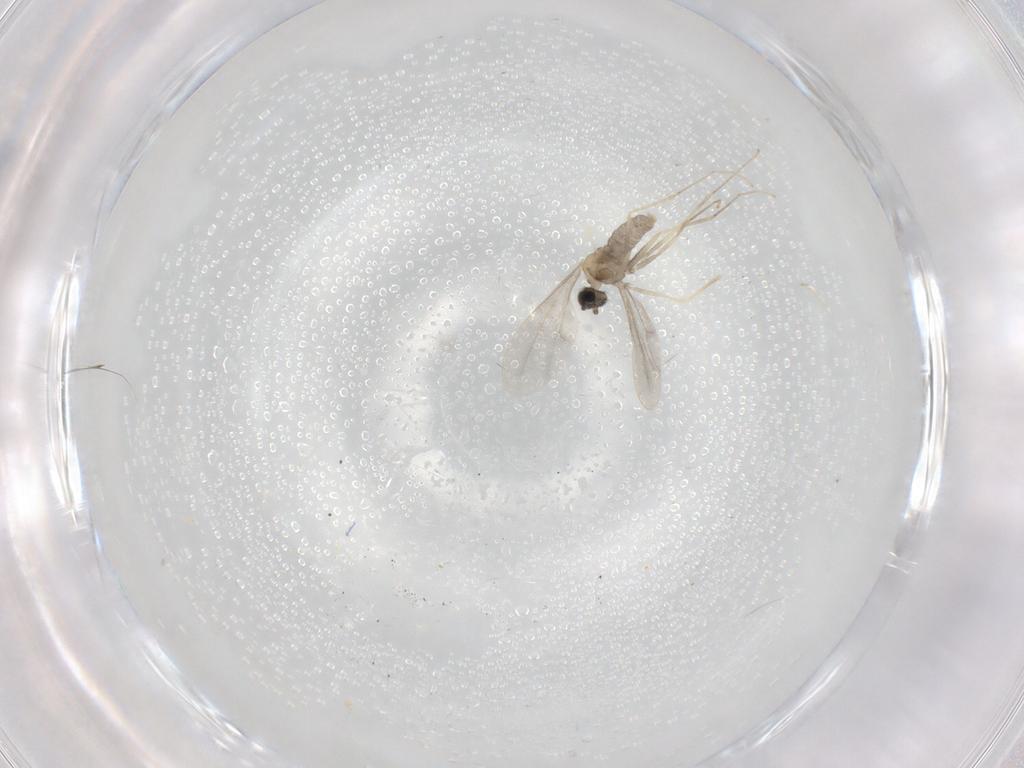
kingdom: Animalia
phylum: Arthropoda
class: Insecta
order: Diptera
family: Cecidomyiidae
